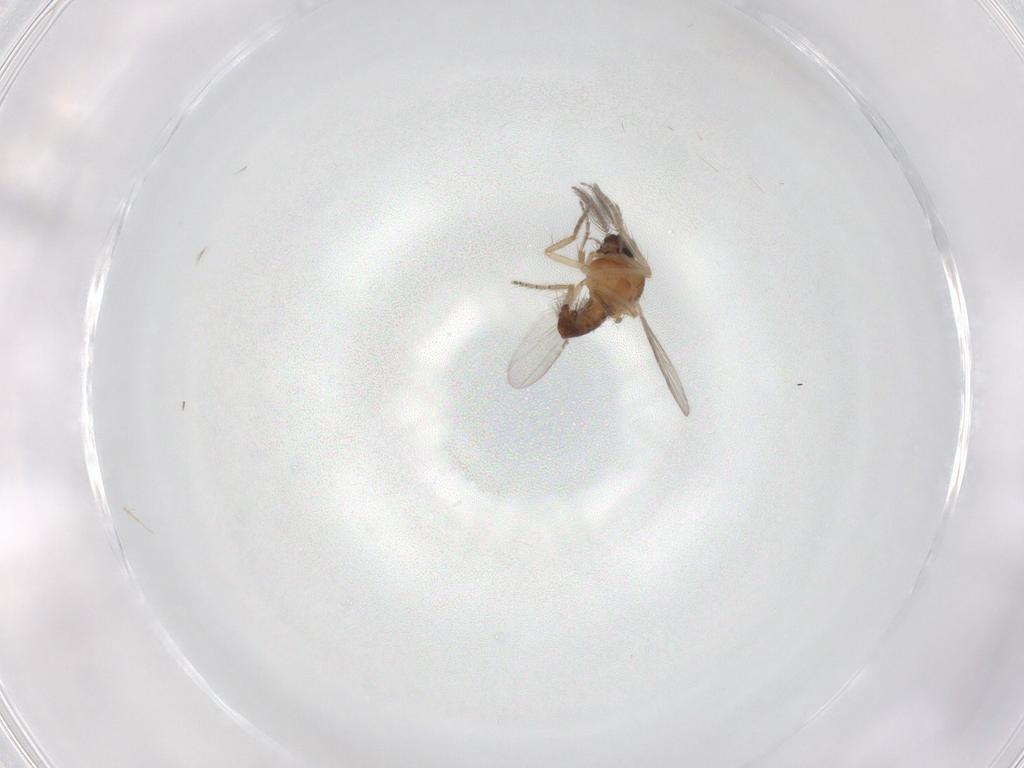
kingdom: Animalia
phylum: Arthropoda
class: Insecta
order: Diptera
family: Ceratopogonidae
